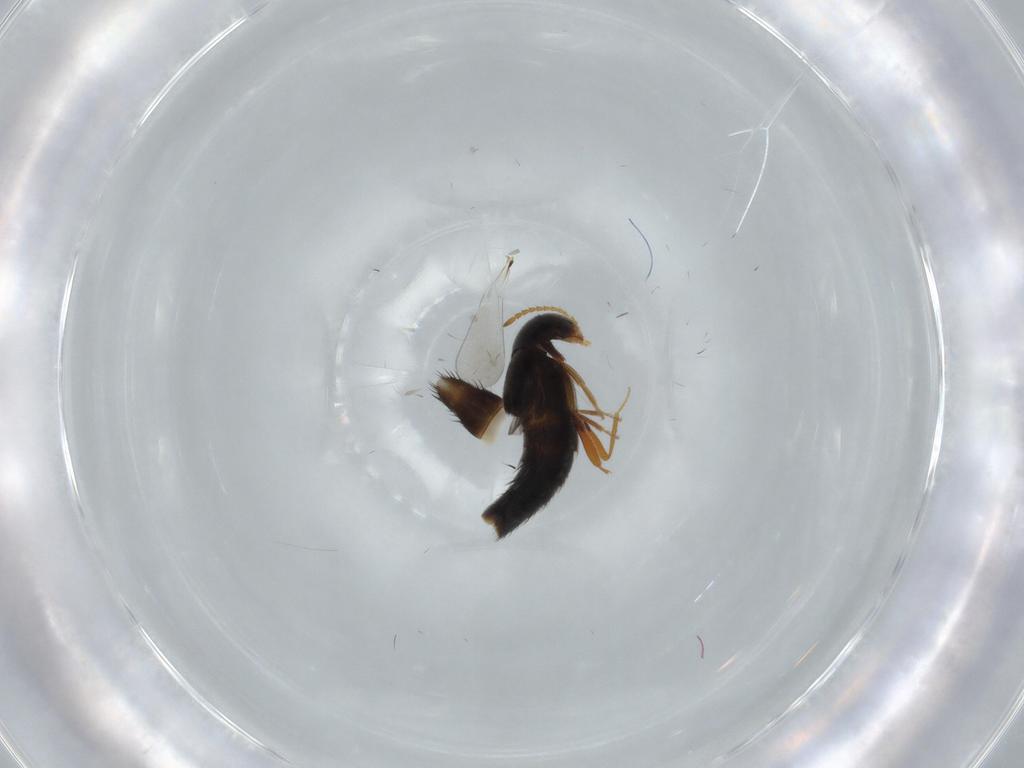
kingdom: Animalia
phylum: Arthropoda
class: Insecta
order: Coleoptera
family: Staphylinidae
